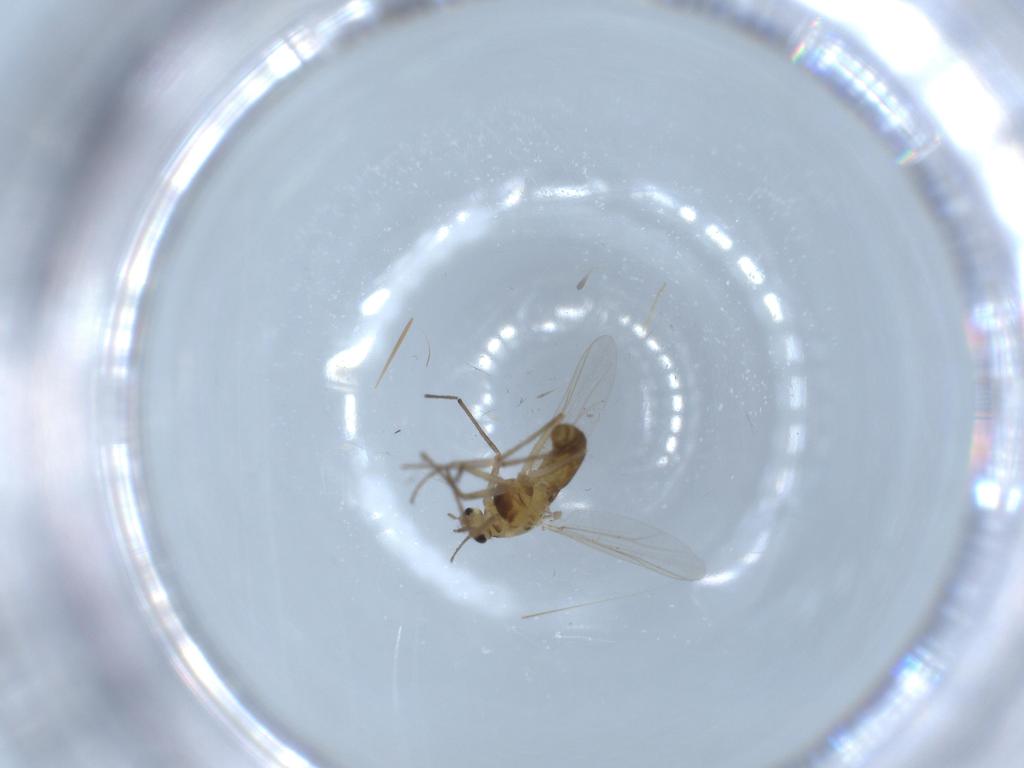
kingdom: Animalia
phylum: Arthropoda
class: Insecta
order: Diptera
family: Chironomidae
